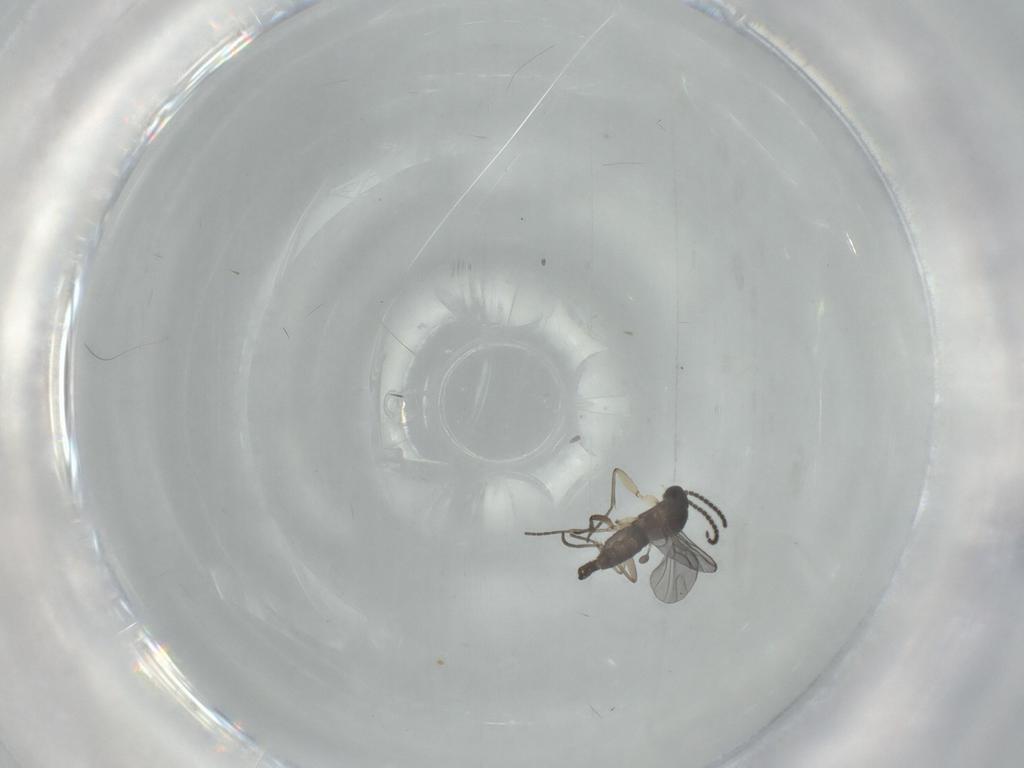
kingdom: Animalia
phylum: Arthropoda
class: Insecta
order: Diptera
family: Sciaridae
